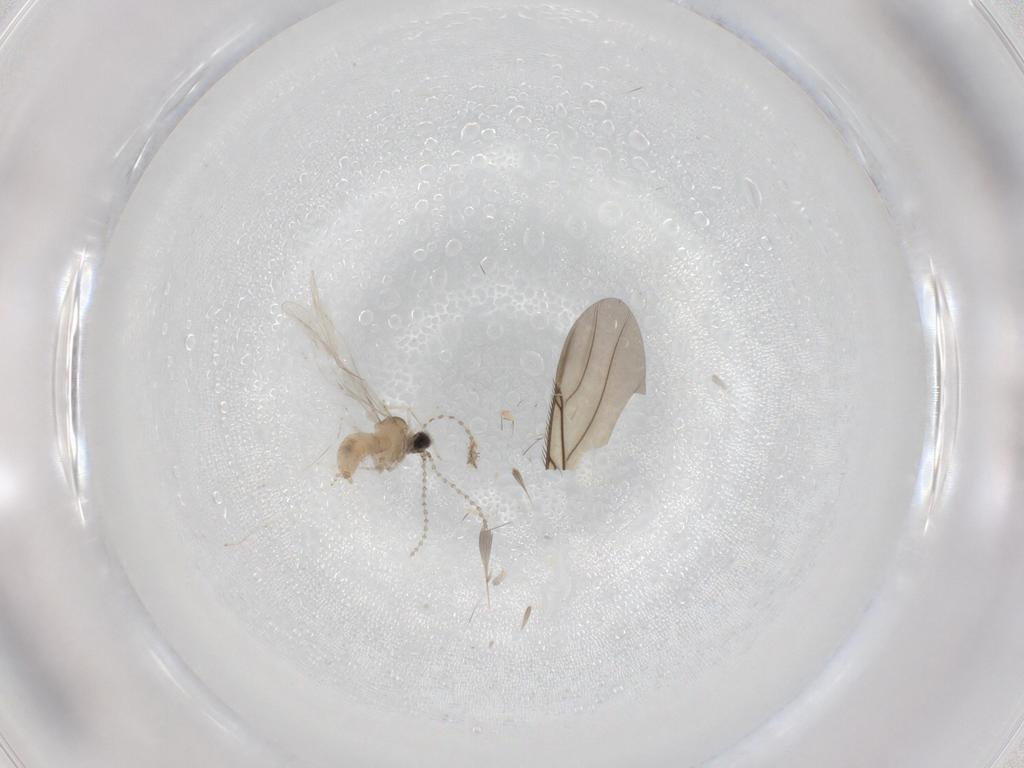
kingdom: Animalia
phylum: Arthropoda
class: Insecta
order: Diptera
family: Cecidomyiidae
